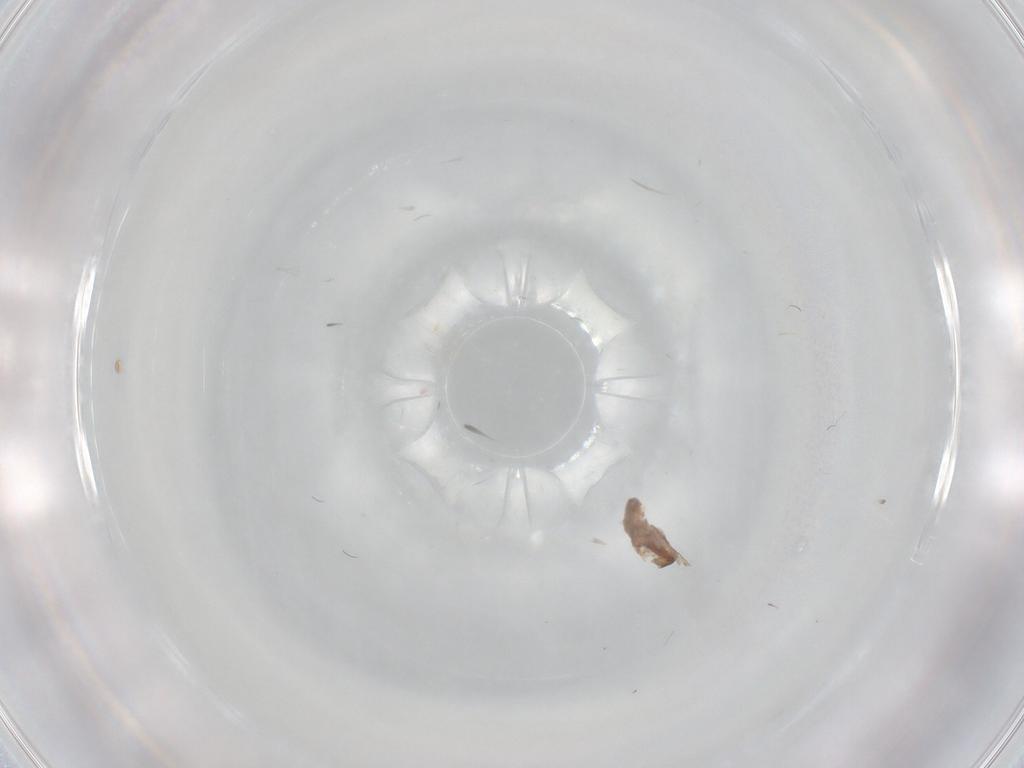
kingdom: Animalia
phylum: Arthropoda
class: Insecta
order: Diptera
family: Cecidomyiidae
